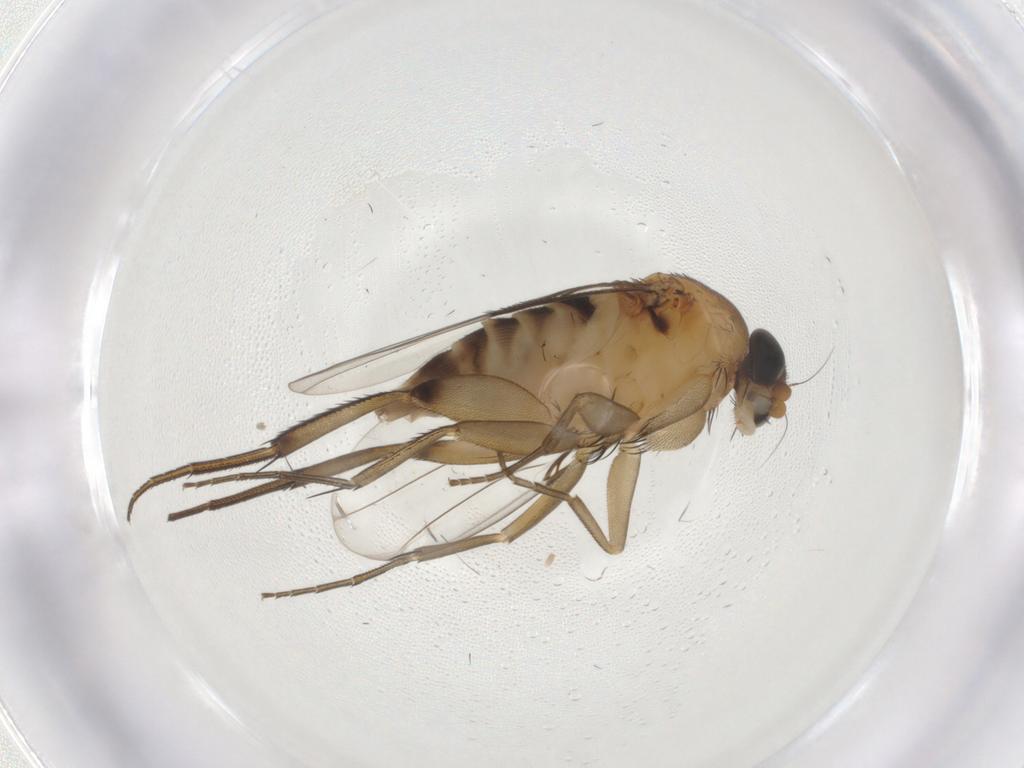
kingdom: Animalia
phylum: Arthropoda
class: Insecta
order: Diptera
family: Phoridae
